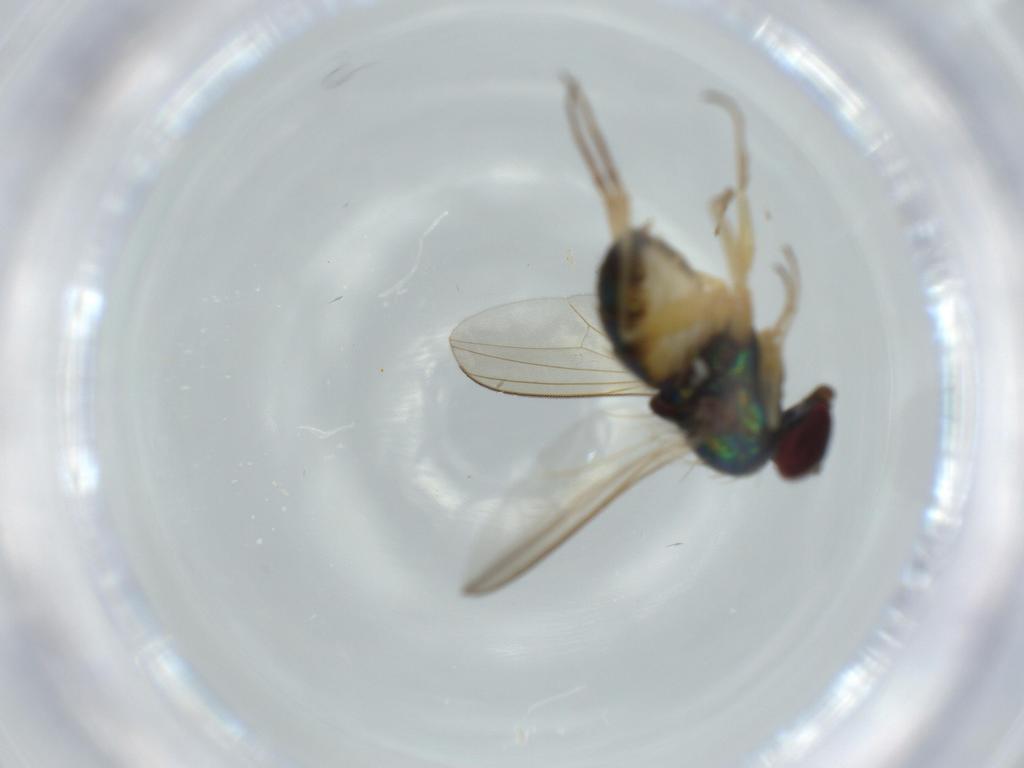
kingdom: Animalia
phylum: Arthropoda
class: Insecta
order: Diptera
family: Dolichopodidae
